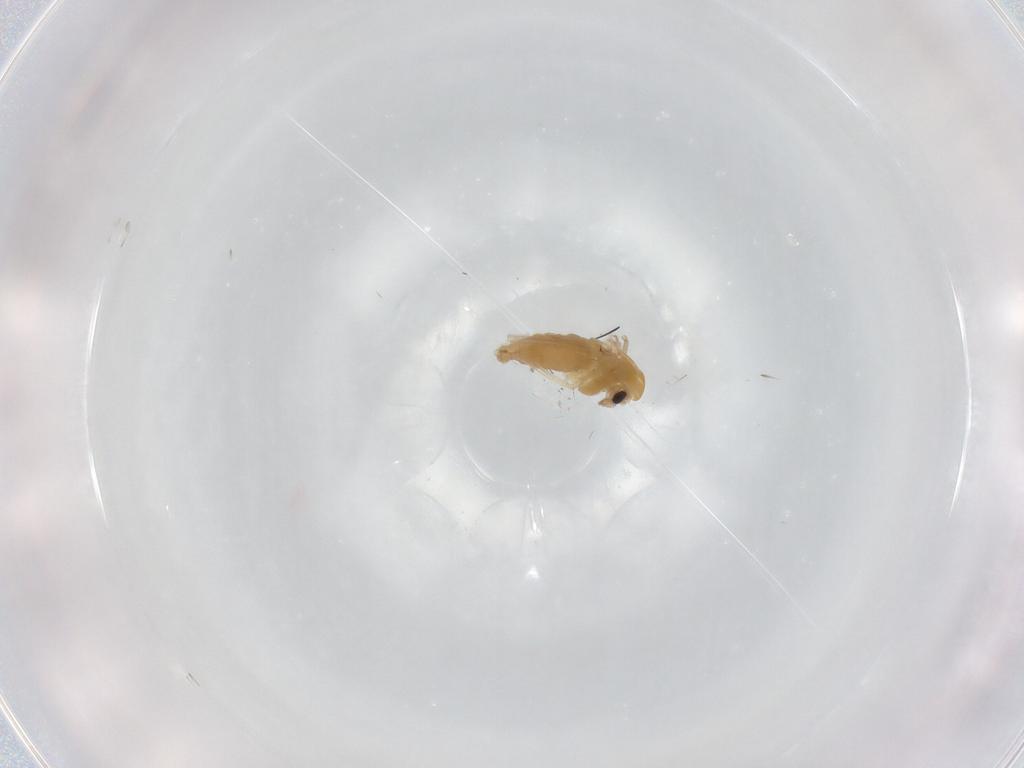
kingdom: Animalia
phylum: Arthropoda
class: Insecta
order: Diptera
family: Chironomidae
